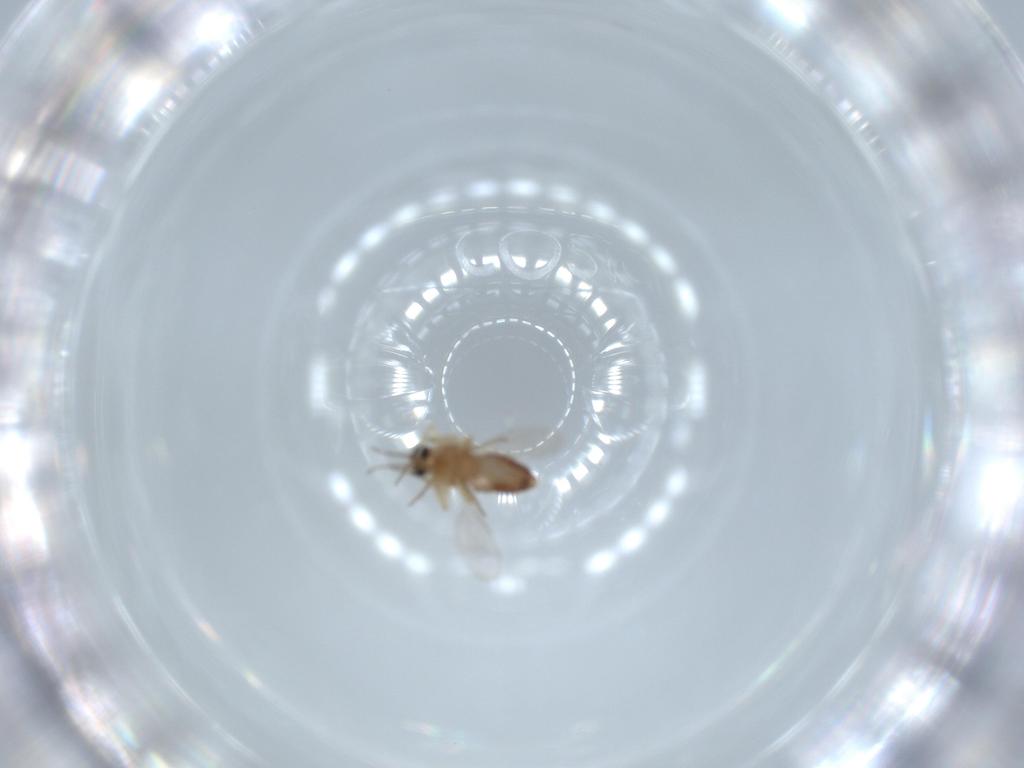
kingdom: Animalia
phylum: Arthropoda
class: Insecta
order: Diptera
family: Ceratopogonidae
